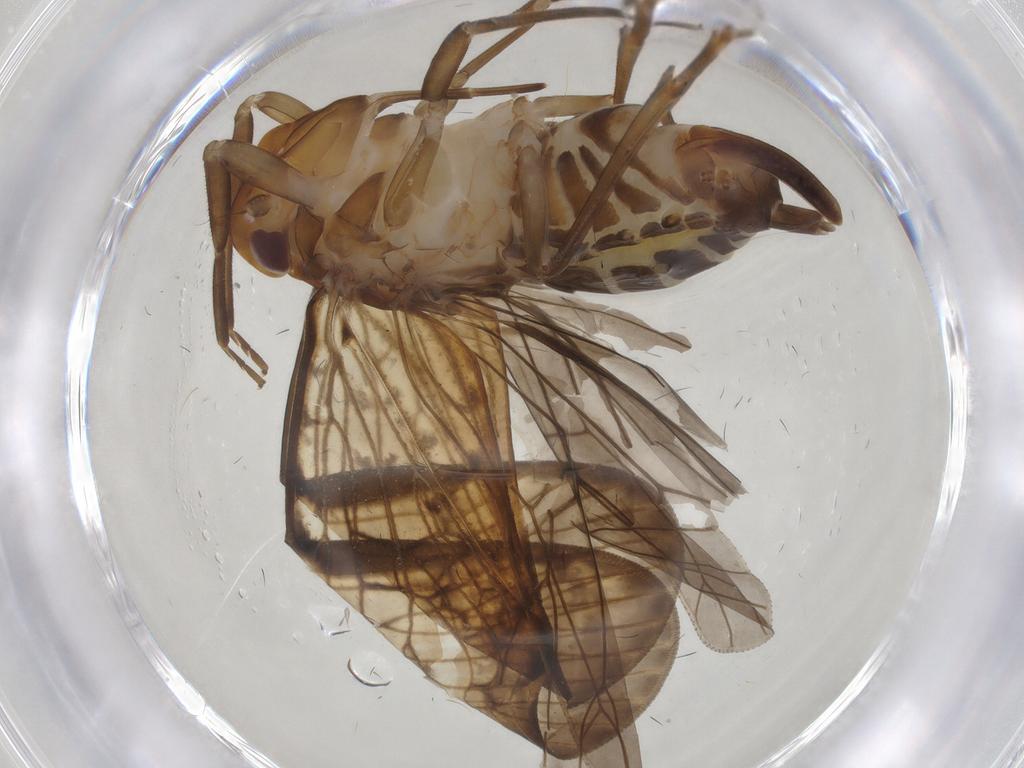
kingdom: Animalia
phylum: Arthropoda
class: Insecta
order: Hemiptera
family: Cixiidae
